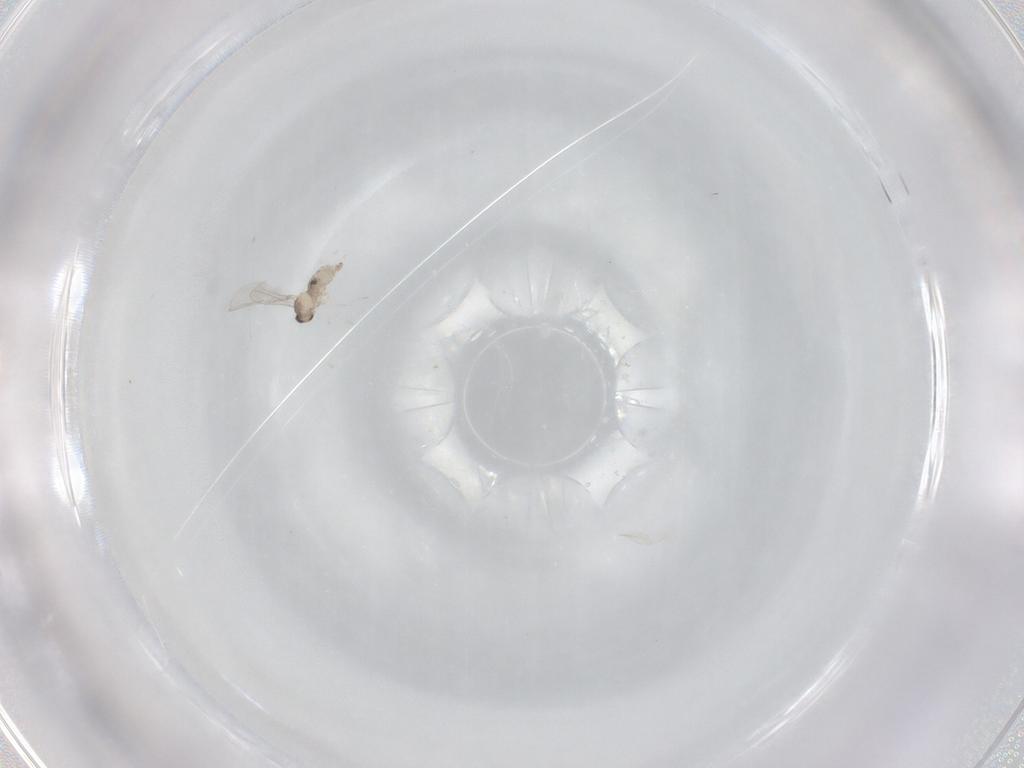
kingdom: Animalia
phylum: Arthropoda
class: Insecta
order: Diptera
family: Cecidomyiidae
